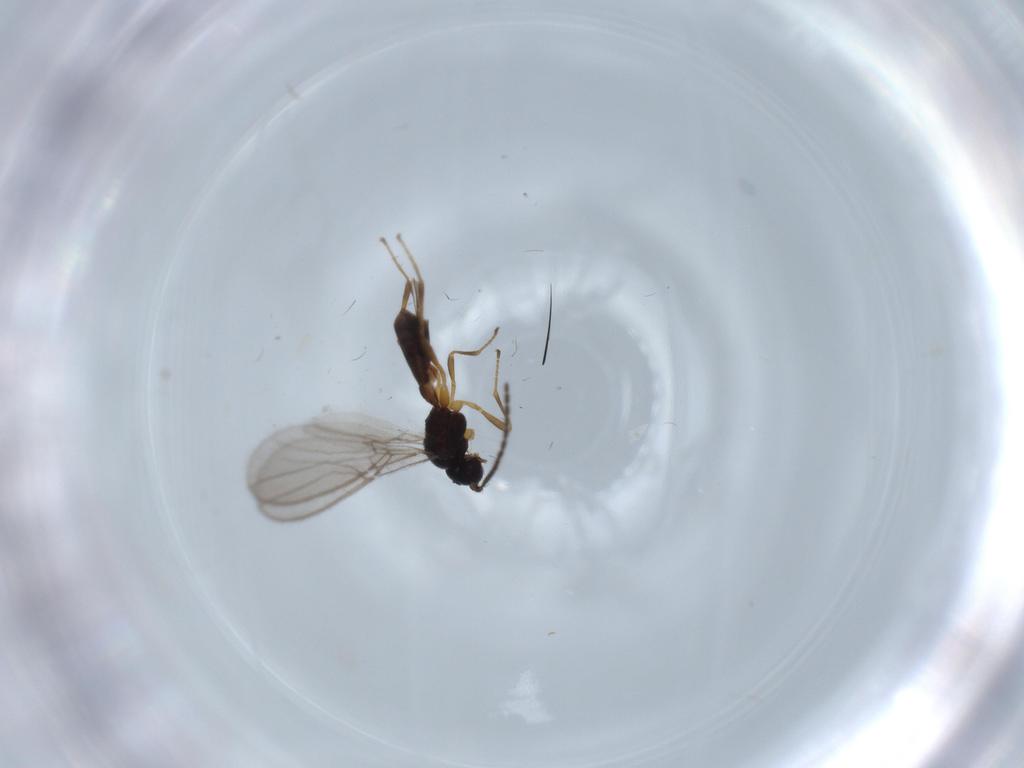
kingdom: Animalia
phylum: Arthropoda
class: Insecta
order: Hymenoptera
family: Braconidae
